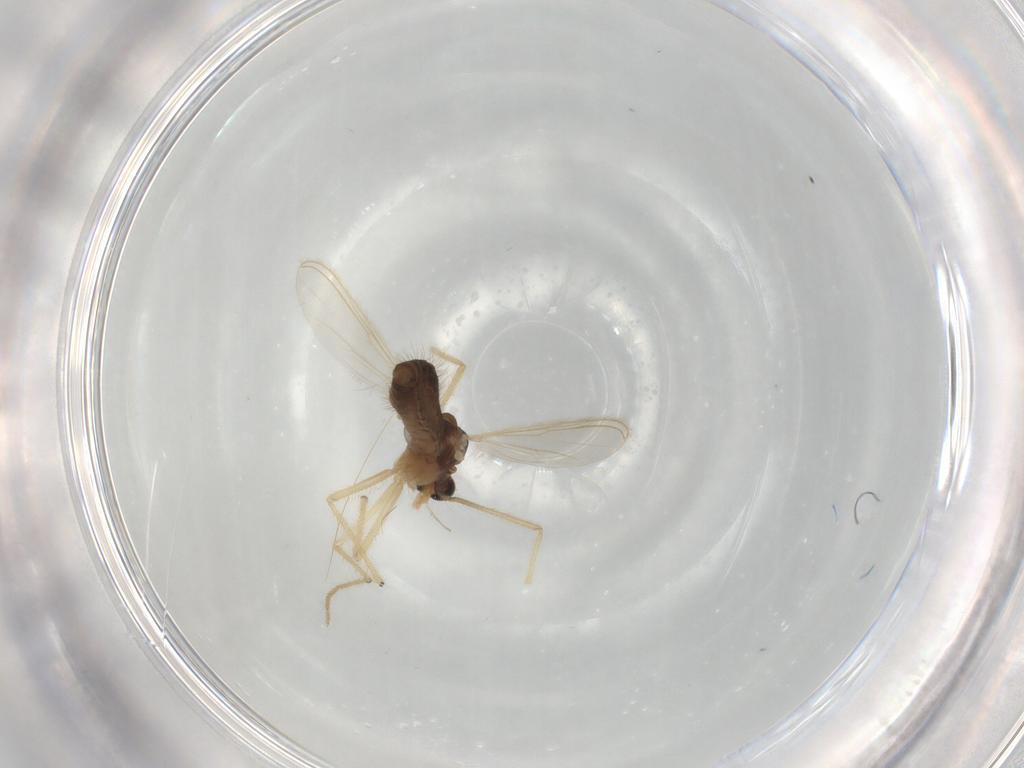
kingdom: Animalia
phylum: Arthropoda
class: Insecta
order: Diptera
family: Chironomidae
